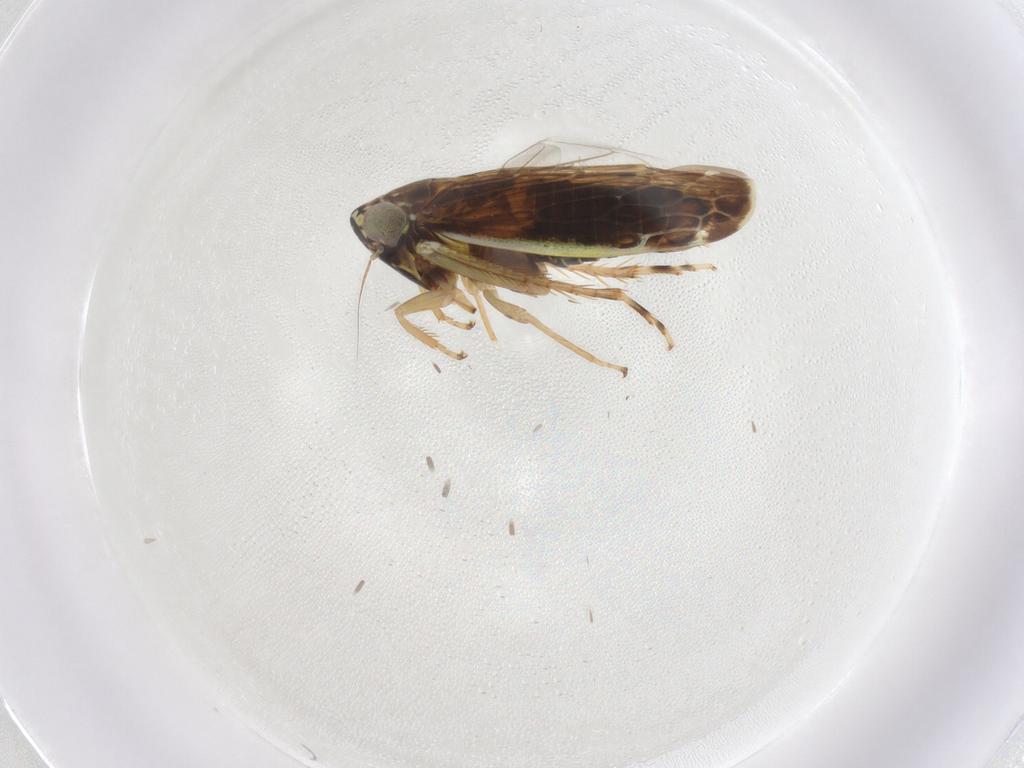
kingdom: Animalia
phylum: Arthropoda
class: Insecta
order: Hemiptera
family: Cicadellidae
